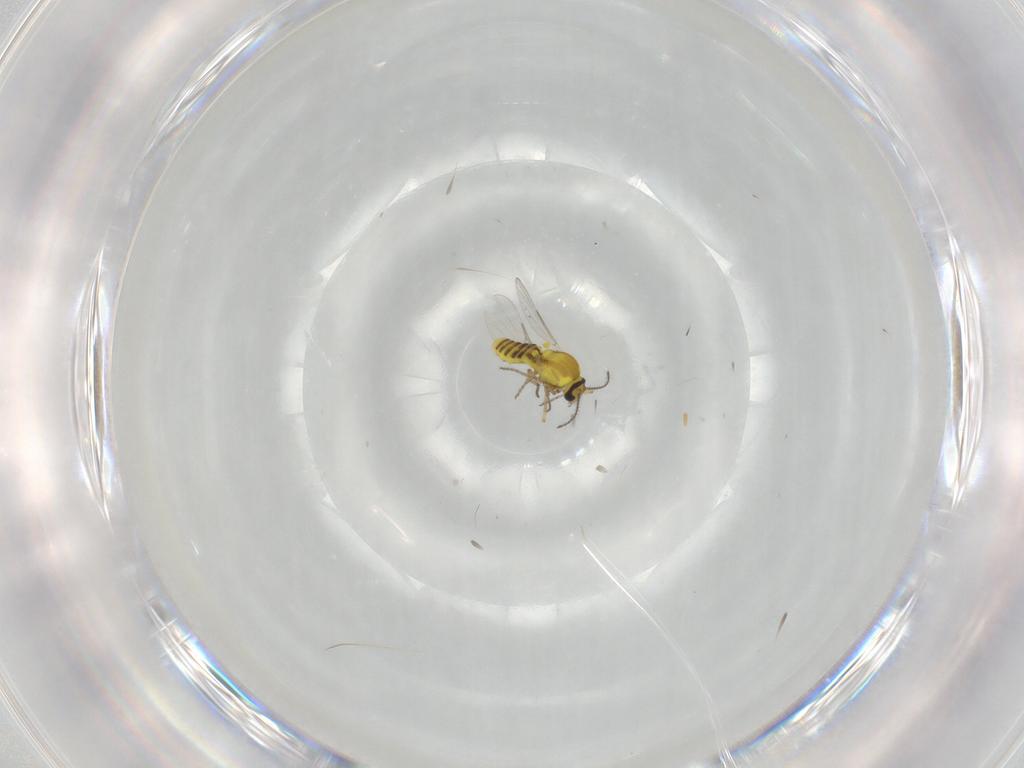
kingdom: Animalia
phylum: Arthropoda
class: Insecta
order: Diptera
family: Ceratopogonidae
